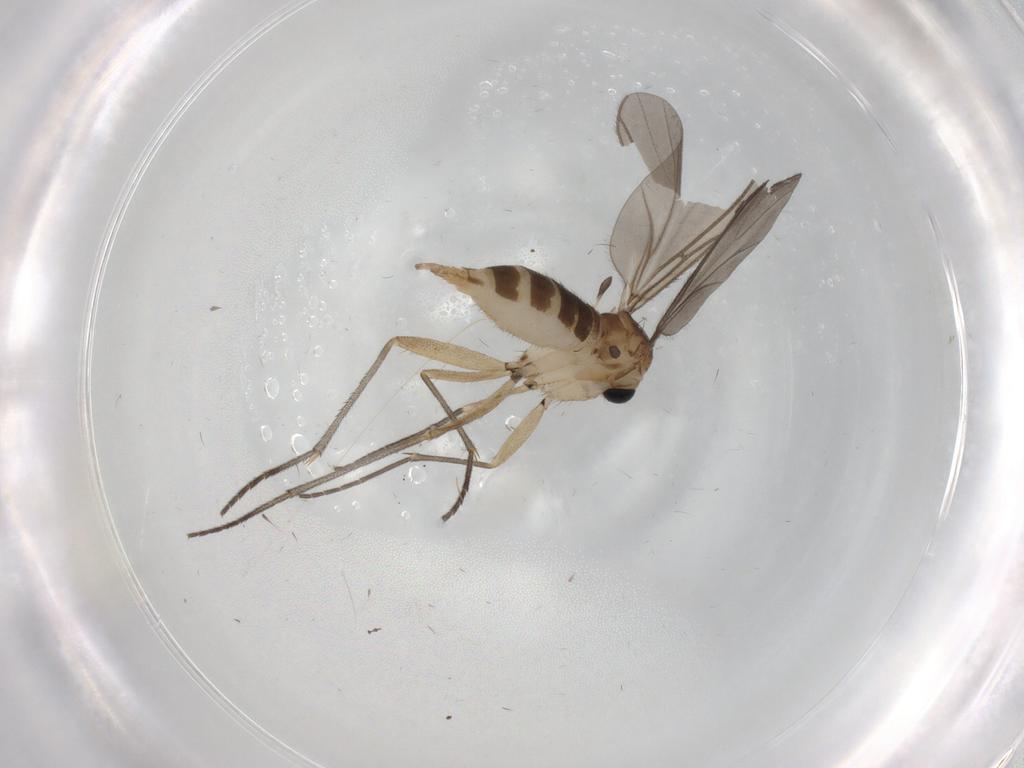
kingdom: Animalia
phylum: Arthropoda
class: Insecta
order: Diptera
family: Sciaridae
